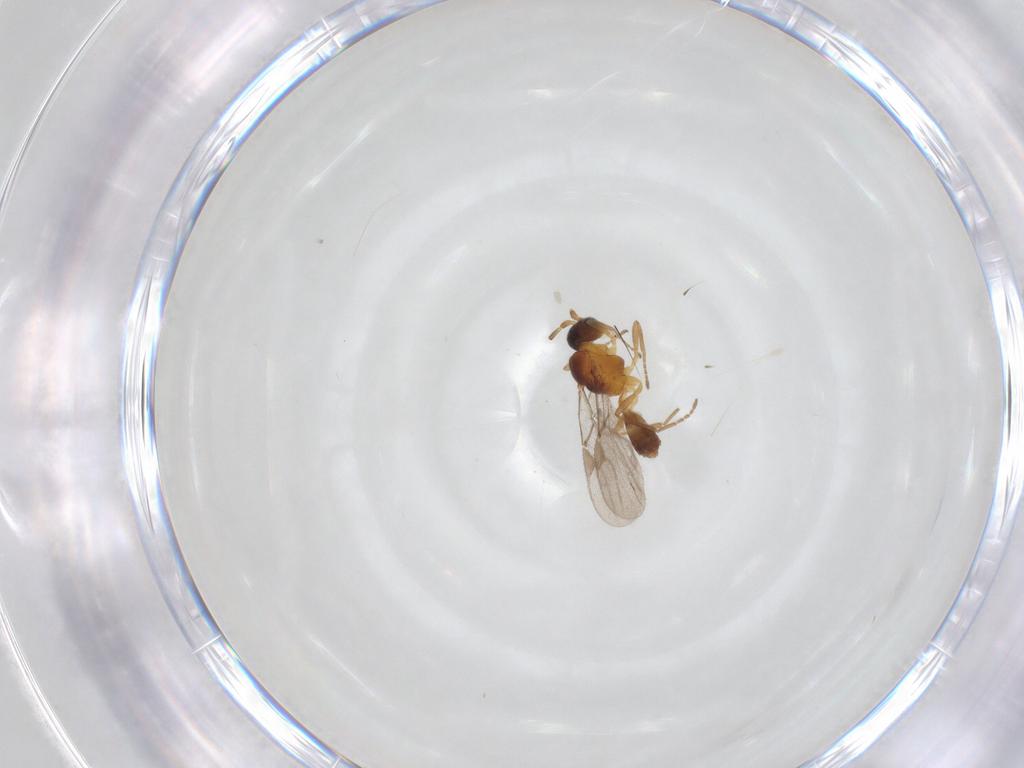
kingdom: Animalia
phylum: Arthropoda
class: Insecta
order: Hymenoptera
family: Braconidae
